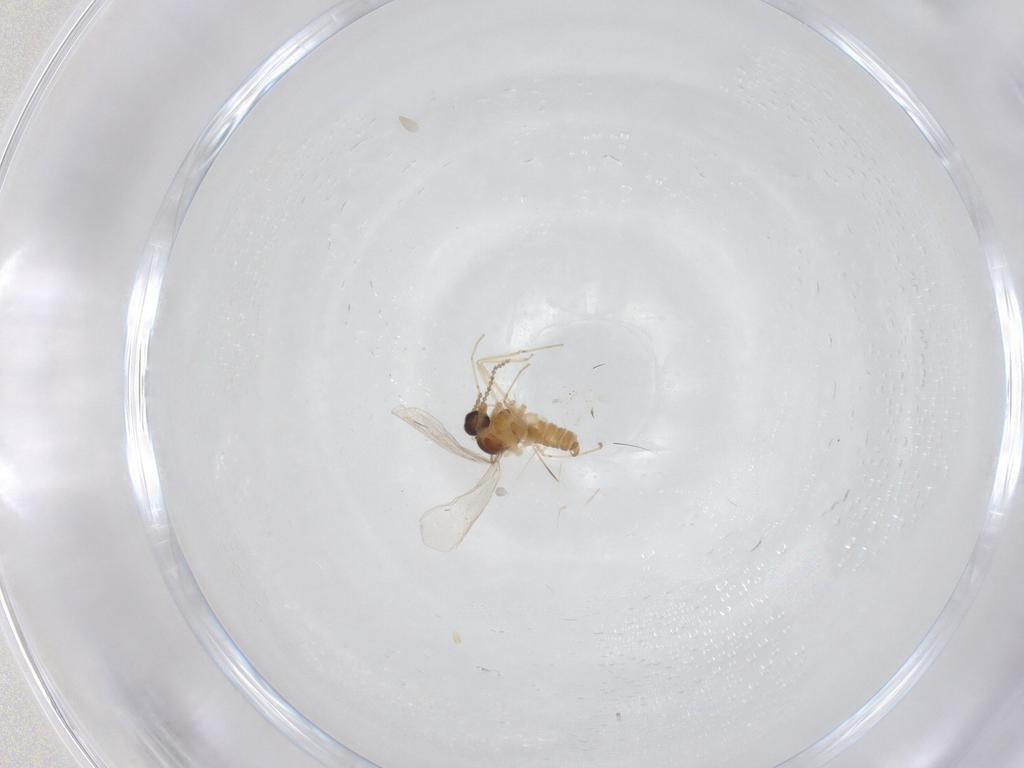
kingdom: Animalia
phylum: Arthropoda
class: Insecta
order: Diptera
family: Cecidomyiidae
